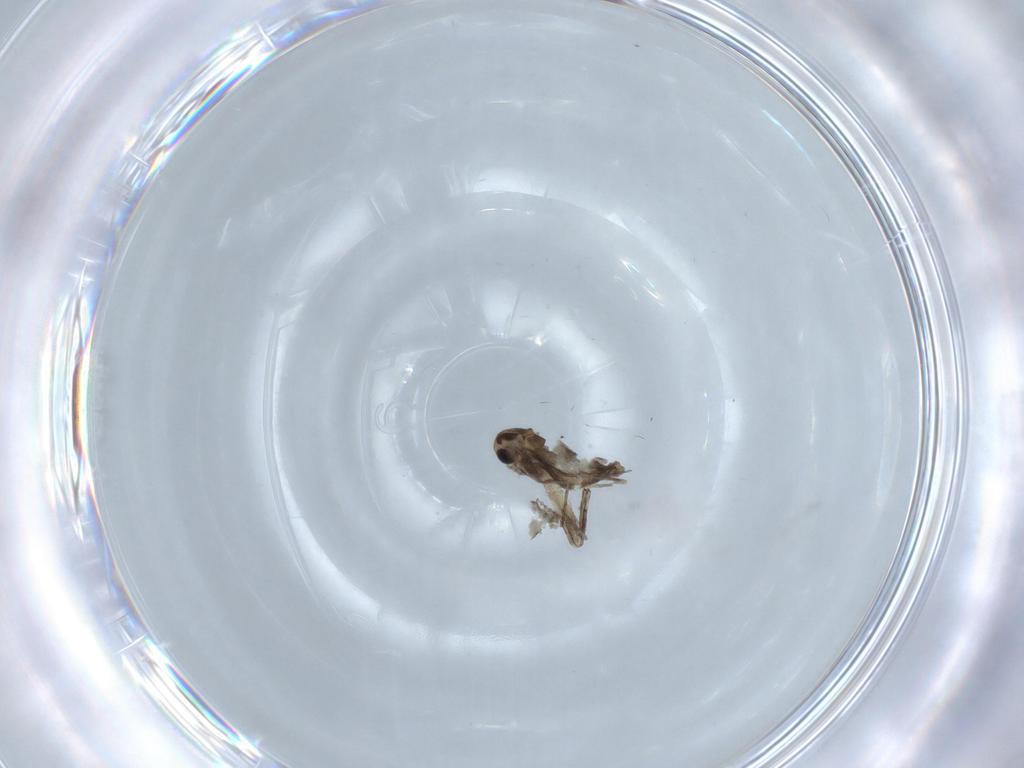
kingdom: Animalia
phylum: Arthropoda
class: Insecta
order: Diptera
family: Chironomidae
